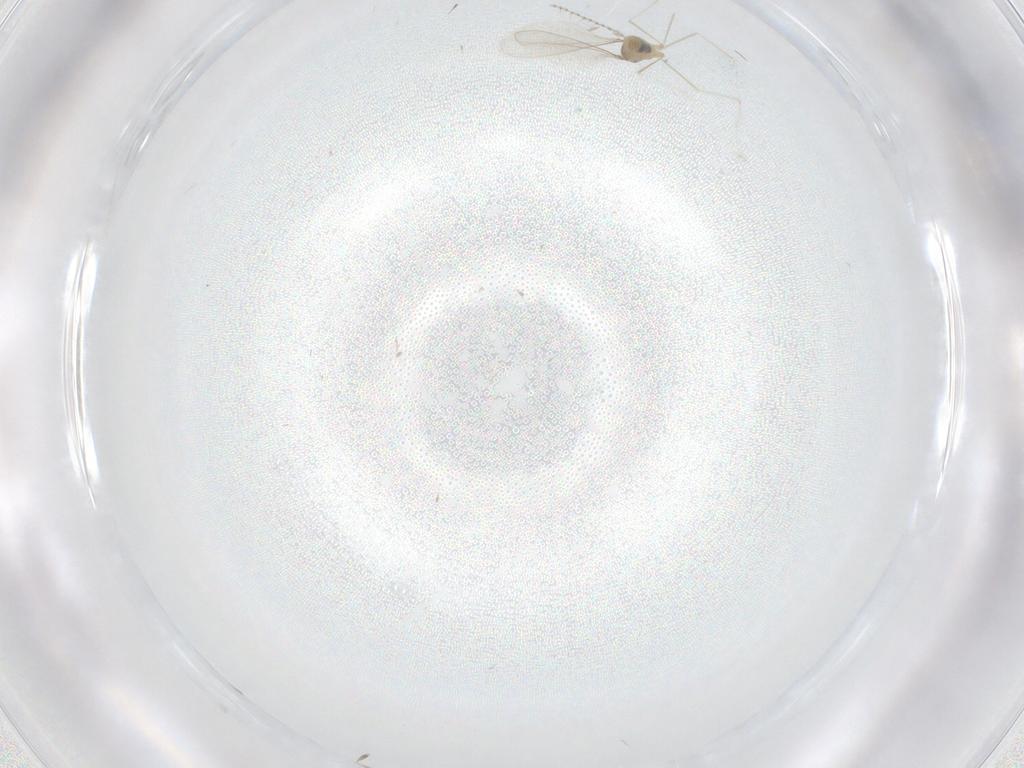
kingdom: Animalia
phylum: Arthropoda
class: Insecta
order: Diptera
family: Cecidomyiidae
